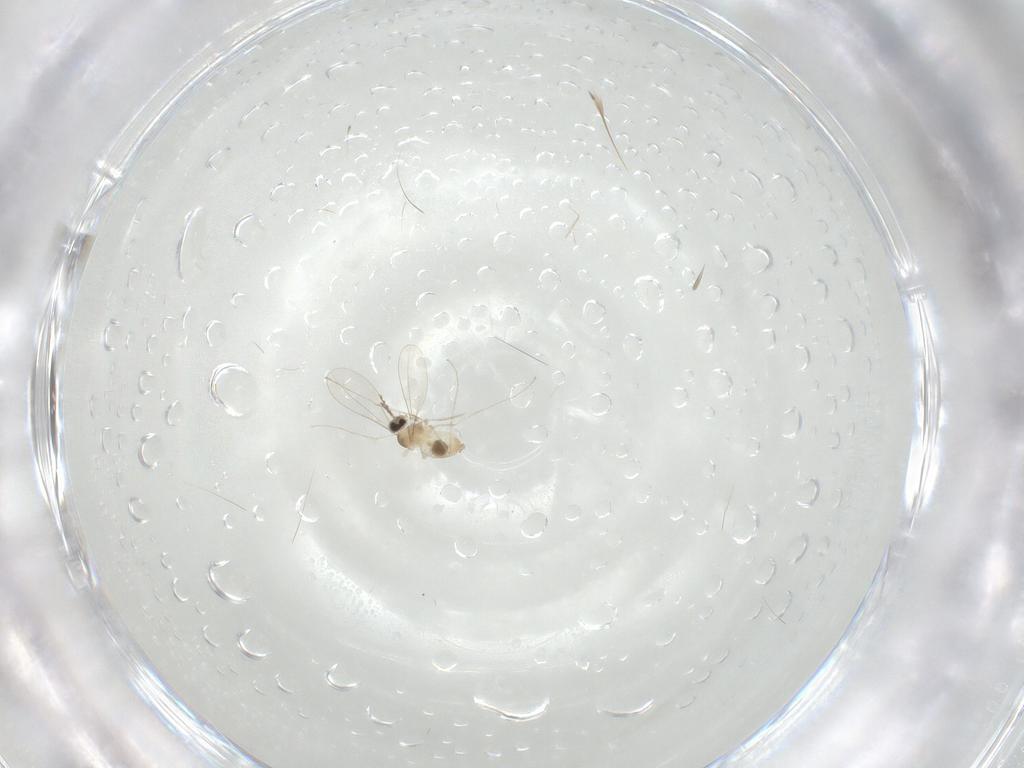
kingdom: Animalia
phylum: Arthropoda
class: Insecta
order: Diptera
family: Cecidomyiidae
